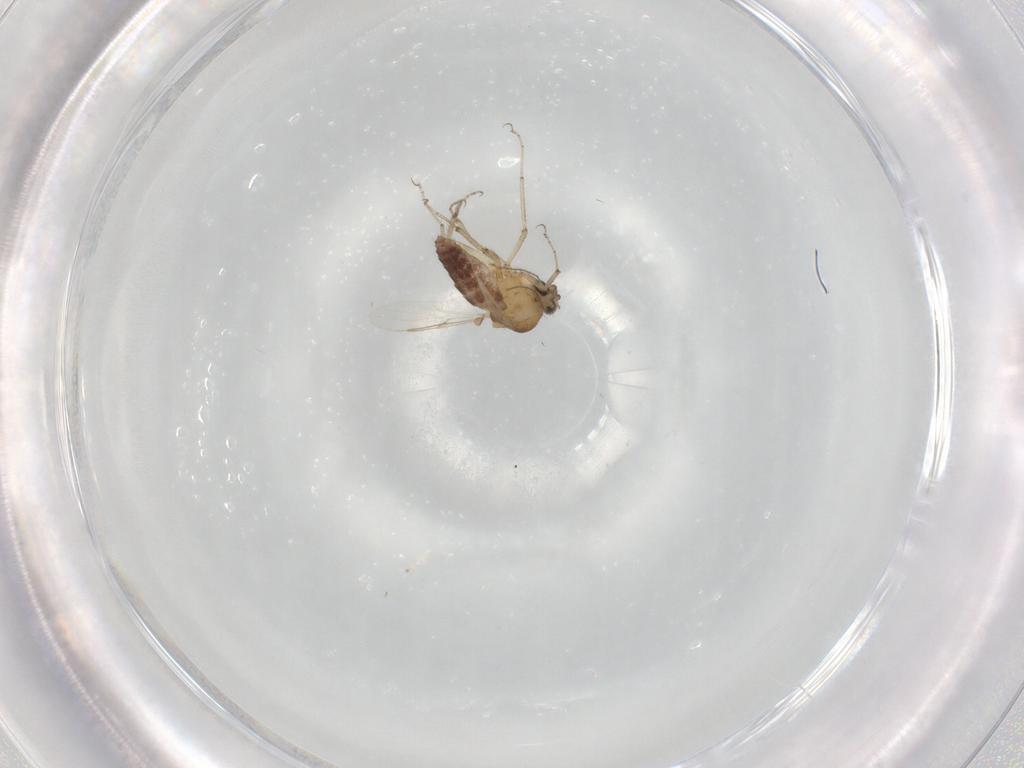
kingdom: Animalia
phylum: Arthropoda
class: Insecta
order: Diptera
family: Ceratopogonidae
